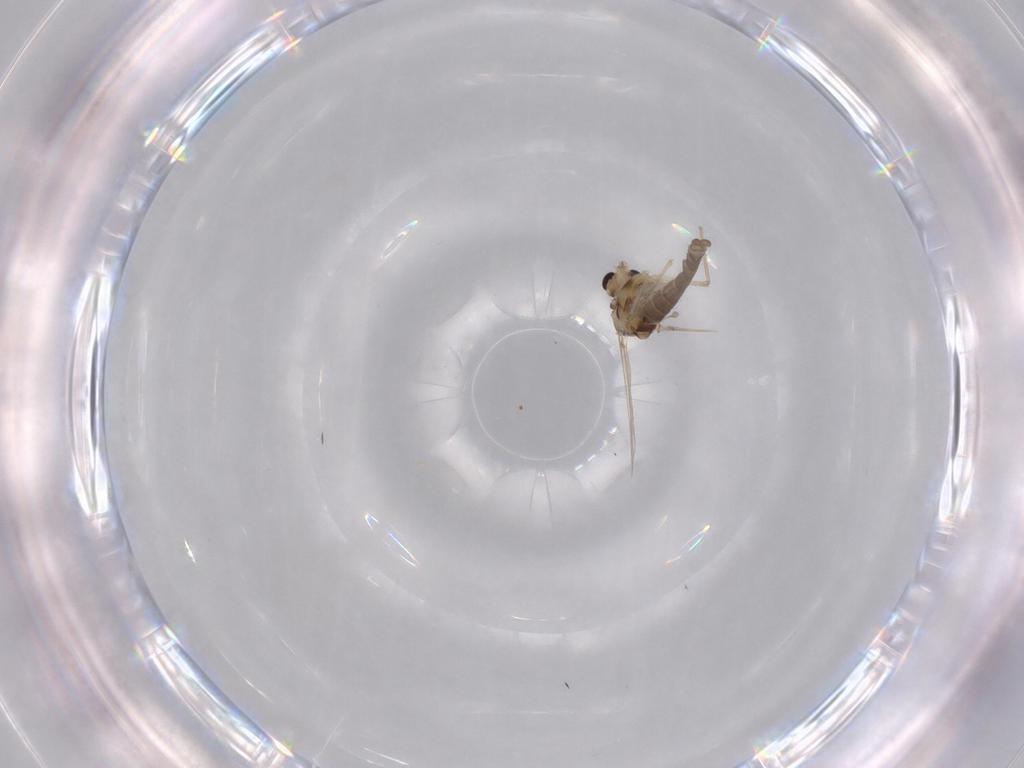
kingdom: Animalia
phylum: Arthropoda
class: Insecta
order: Diptera
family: Chironomidae
